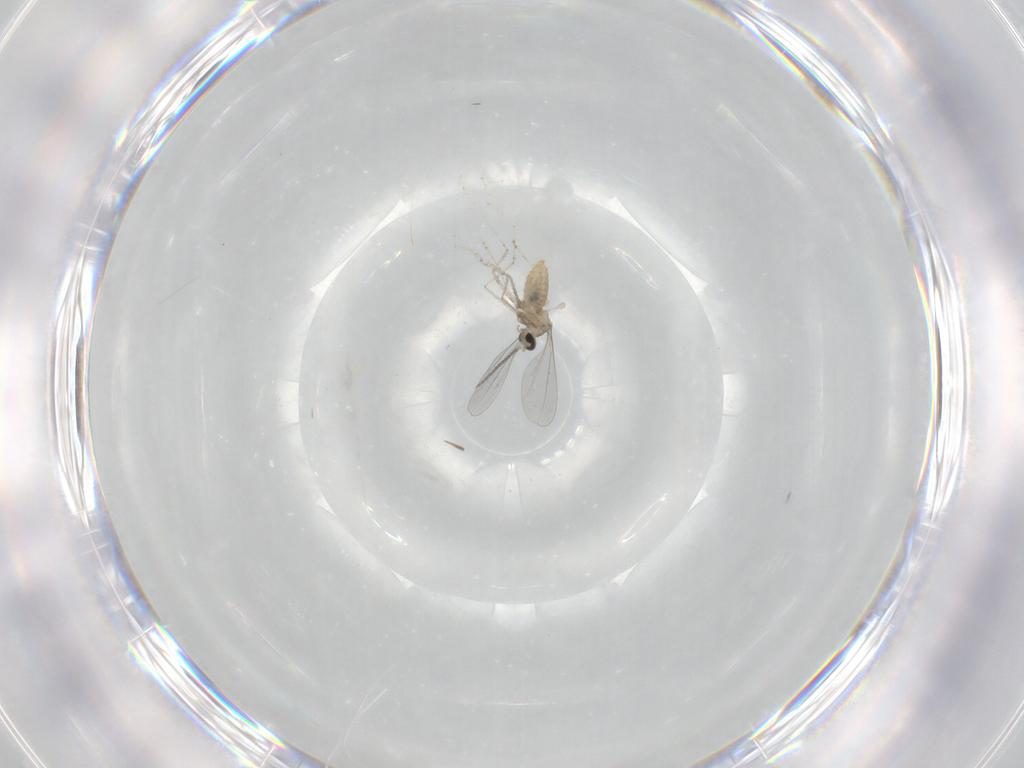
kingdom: Animalia
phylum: Arthropoda
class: Insecta
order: Diptera
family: Cecidomyiidae
